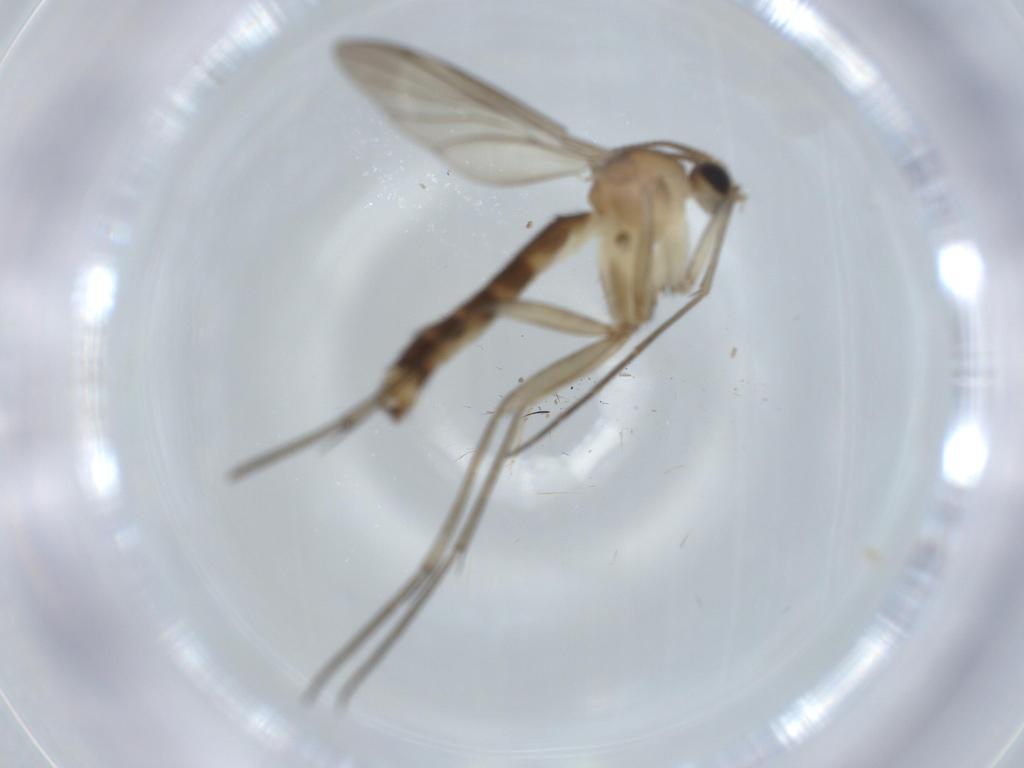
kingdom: Animalia
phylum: Arthropoda
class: Insecta
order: Diptera
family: Mycetophilidae
